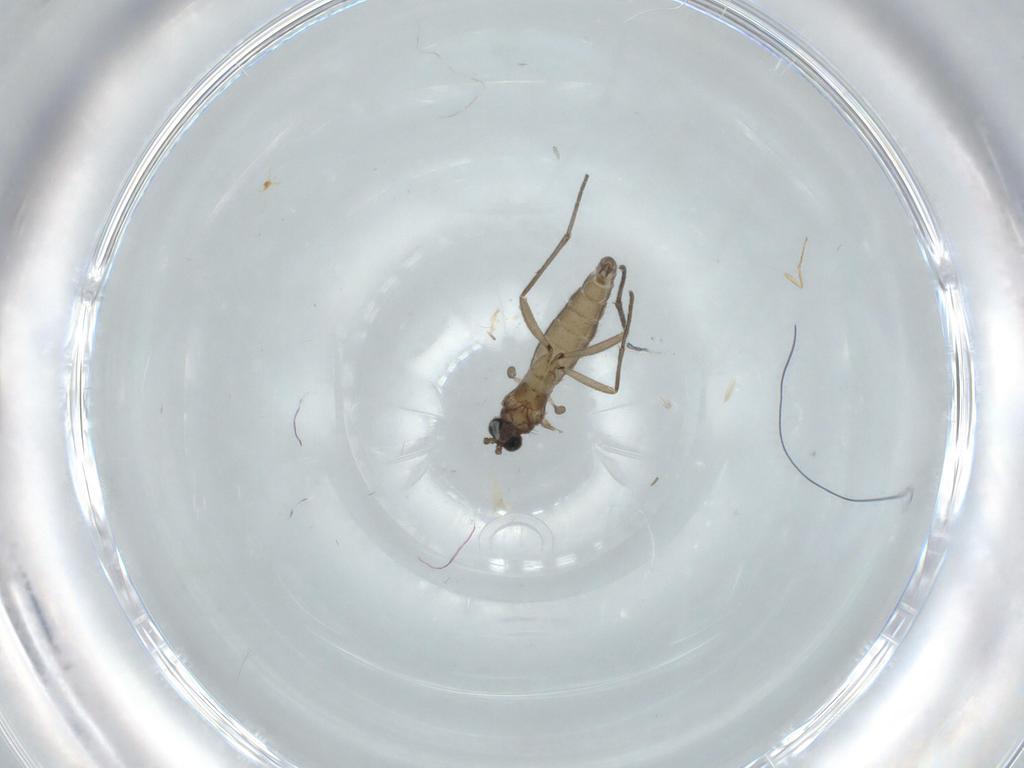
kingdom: Animalia
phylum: Arthropoda
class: Insecta
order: Diptera
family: Sciaridae
